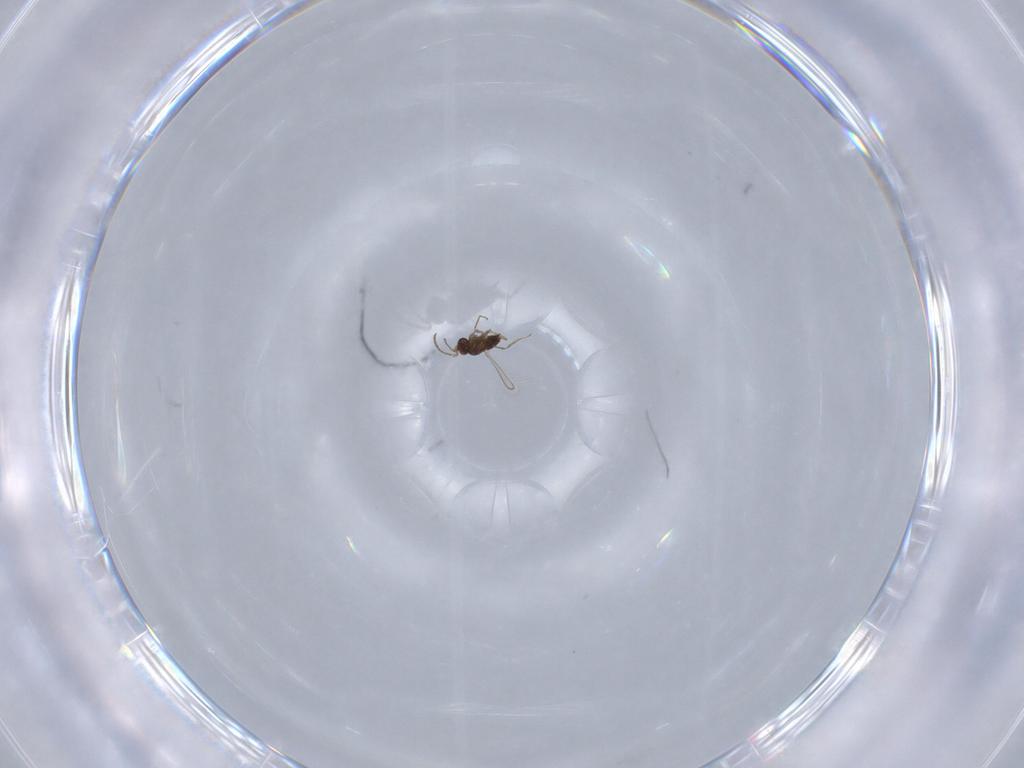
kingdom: Animalia
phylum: Arthropoda
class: Insecta
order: Hymenoptera
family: Mymaridae
